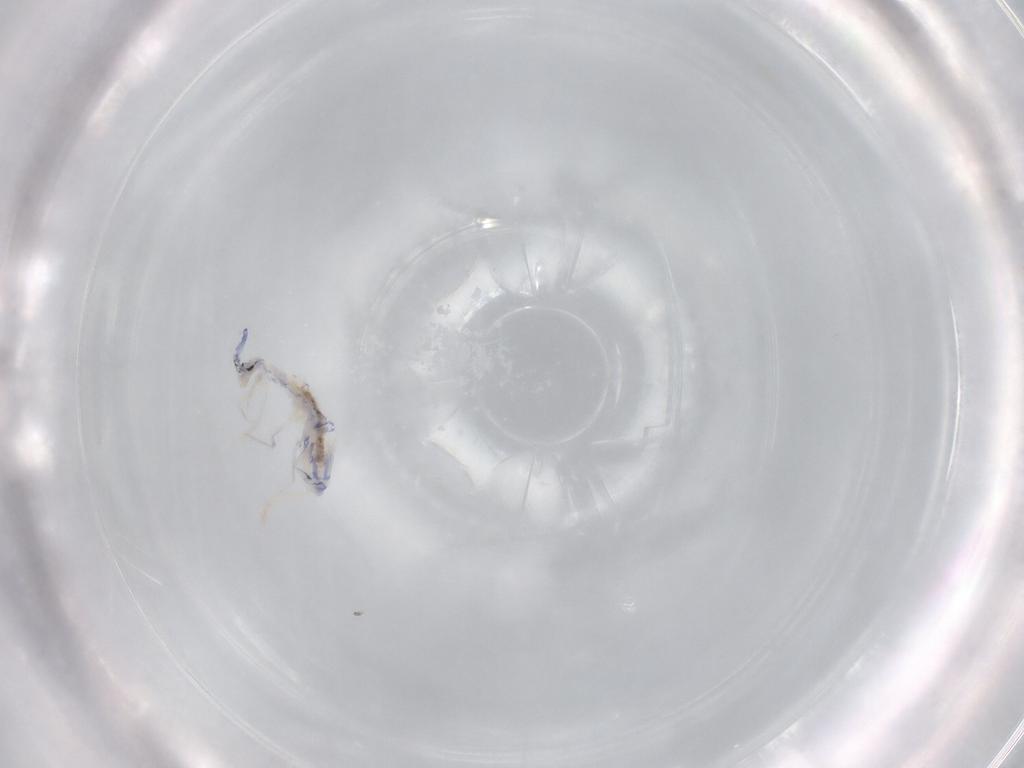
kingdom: Animalia
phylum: Arthropoda
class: Collembola
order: Entomobryomorpha
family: Entomobryidae
